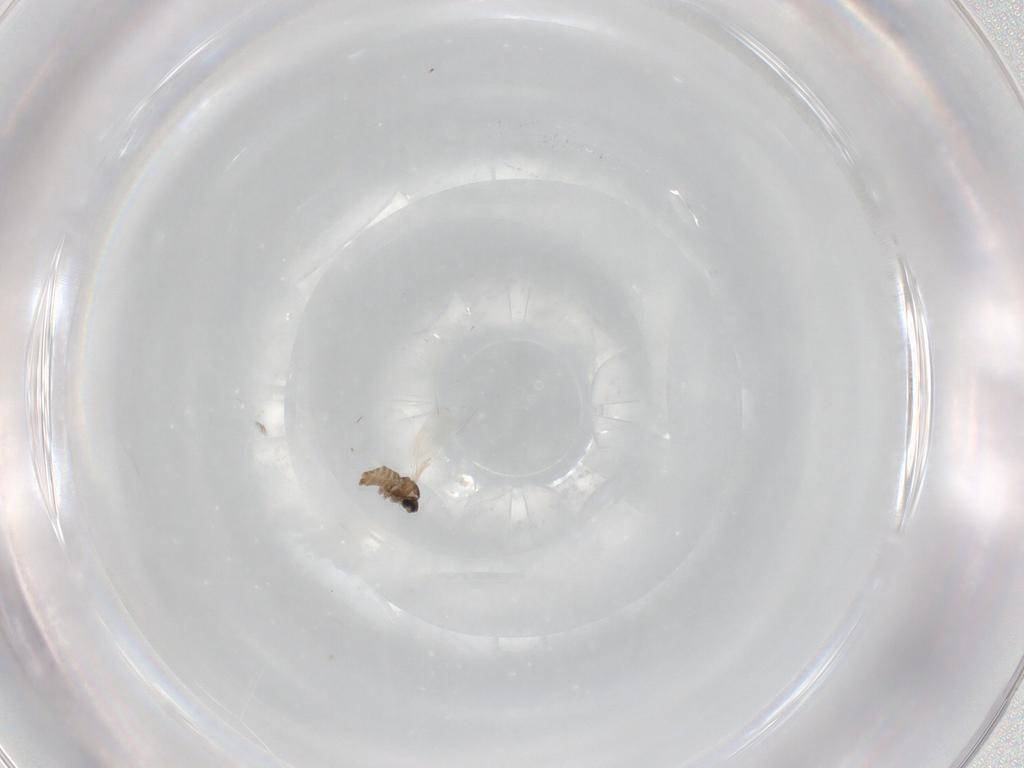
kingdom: Animalia
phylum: Arthropoda
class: Insecta
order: Diptera
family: Cecidomyiidae
